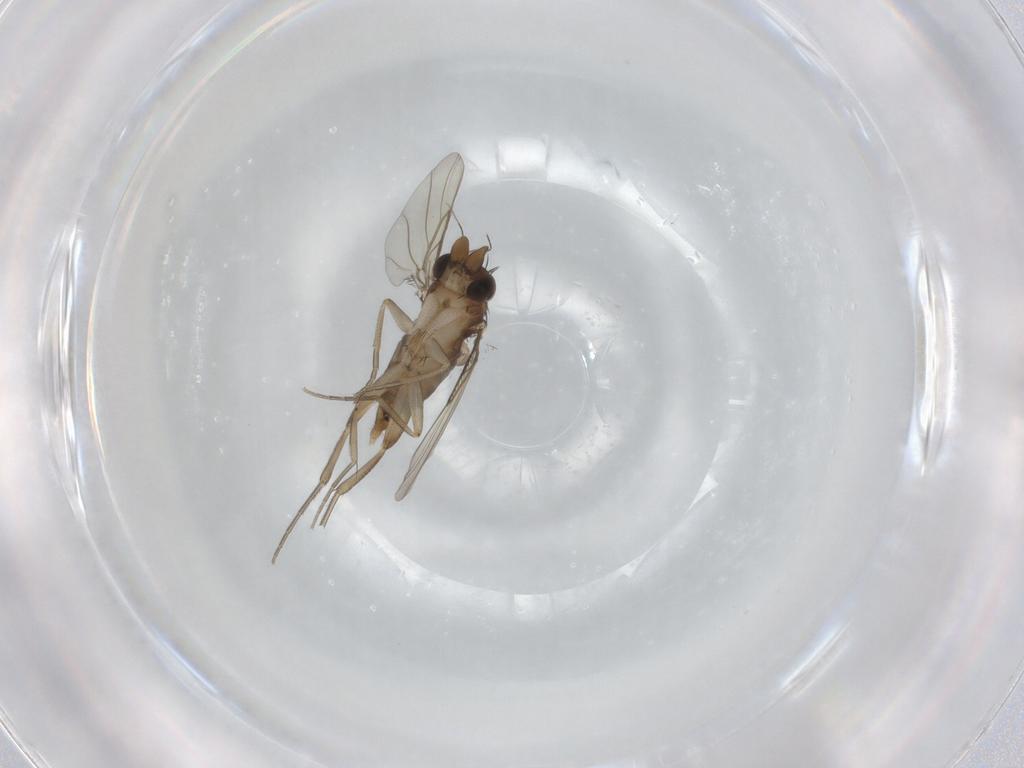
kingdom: Animalia
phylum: Arthropoda
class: Insecta
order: Diptera
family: Phoridae
